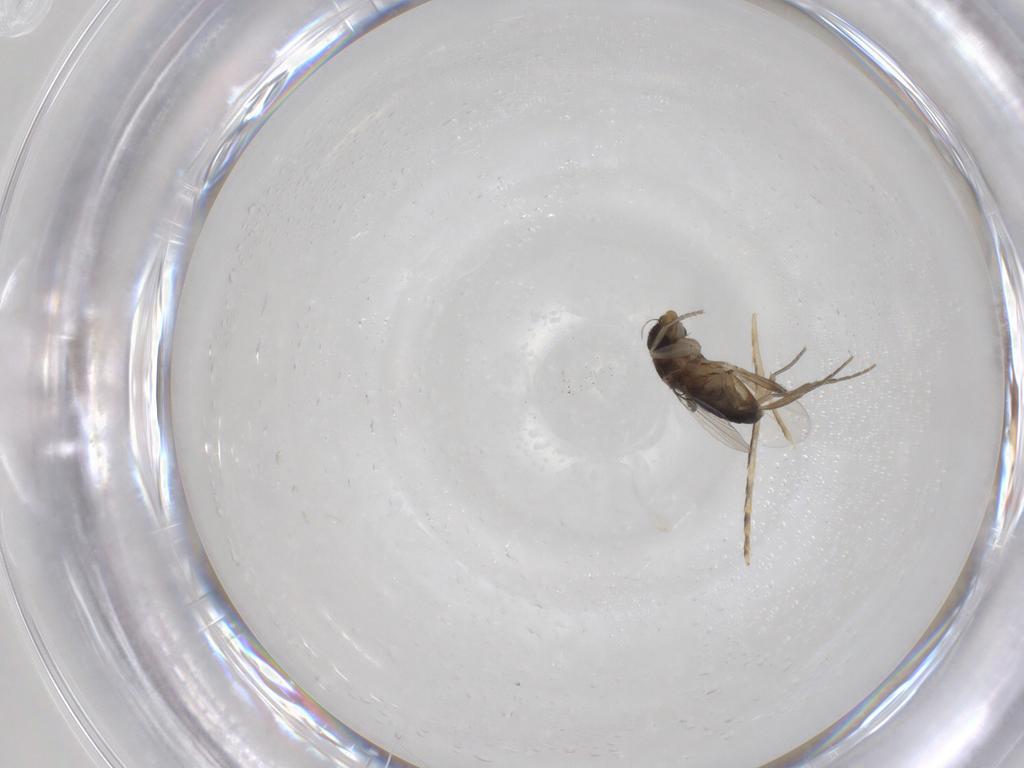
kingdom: Animalia
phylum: Arthropoda
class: Insecta
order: Diptera
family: Phoridae
